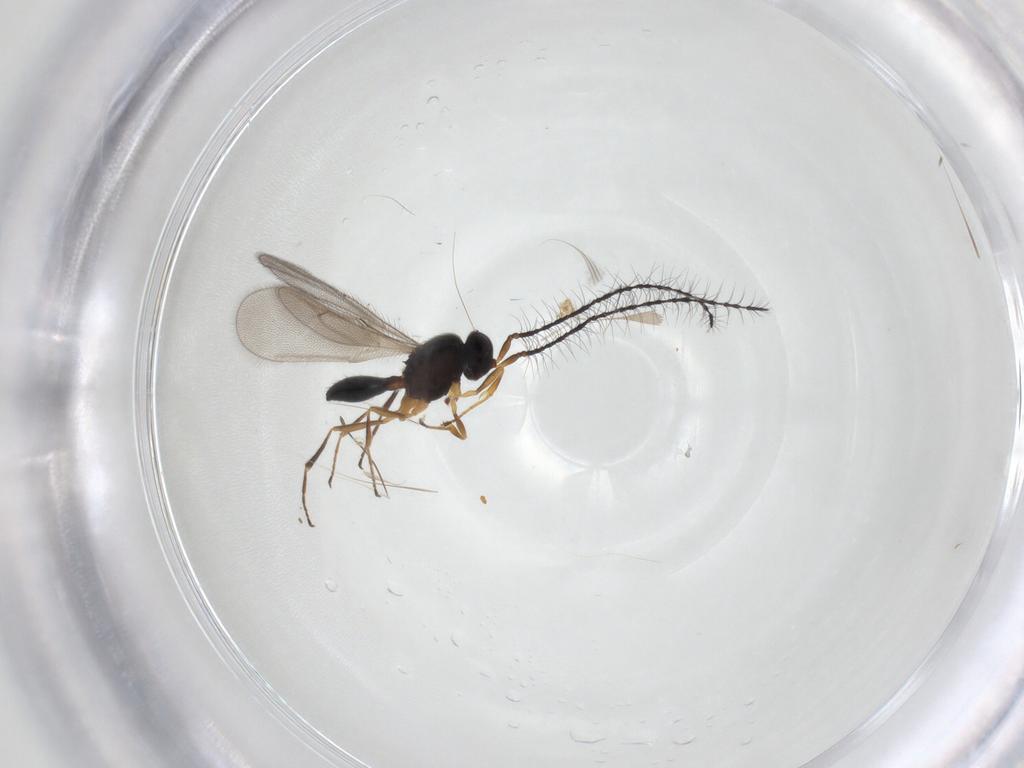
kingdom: Animalia
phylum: Arthropoda
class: Insecta
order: Hymenoptera
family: Scelionidae
